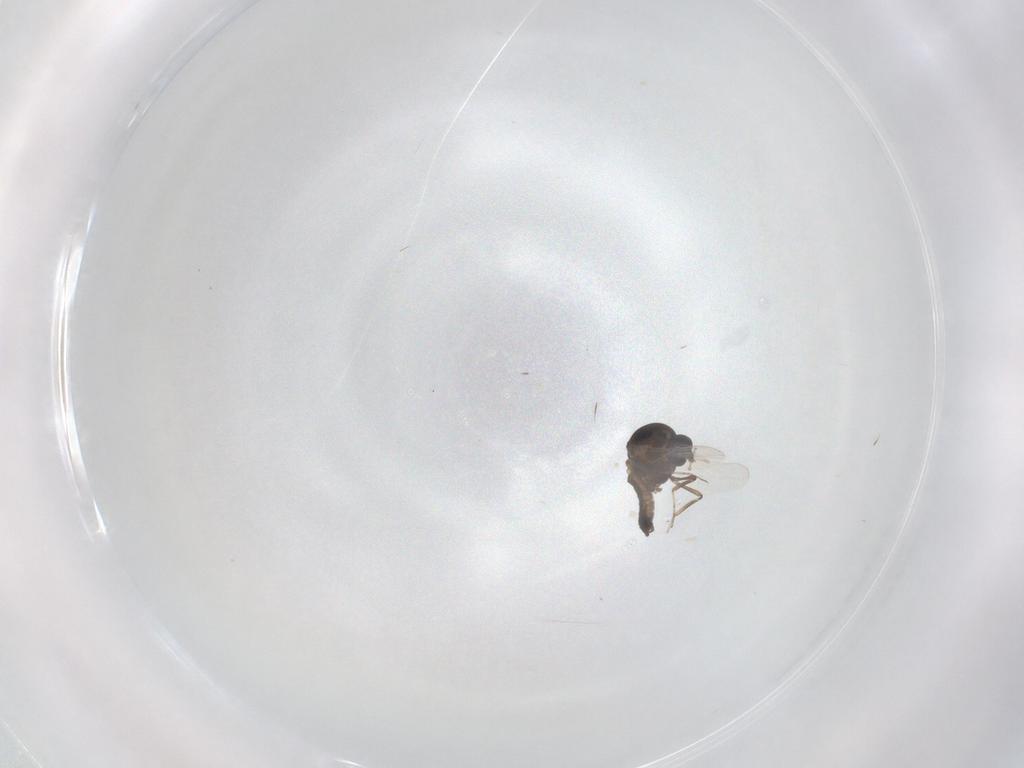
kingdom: Animalia
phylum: Arthropoda
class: Insecta
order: Diptera
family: Ceratopogonidae
